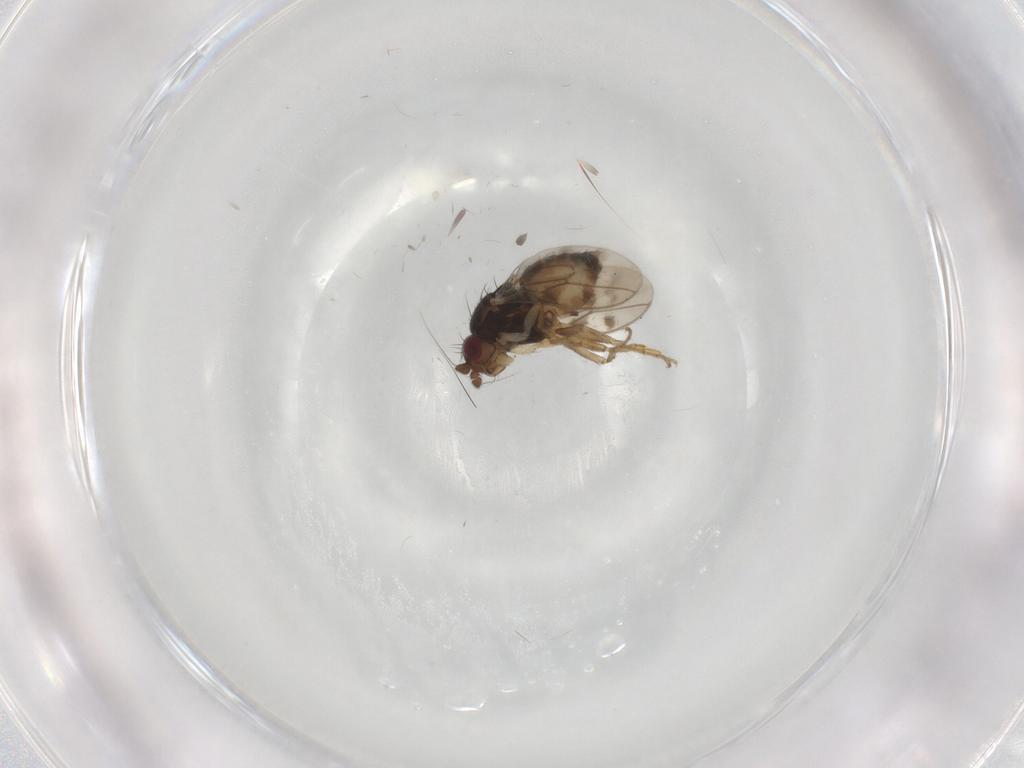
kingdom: Animalia
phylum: Arthropoda
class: Insecta
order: Diptera
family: Sphaeroceridae
